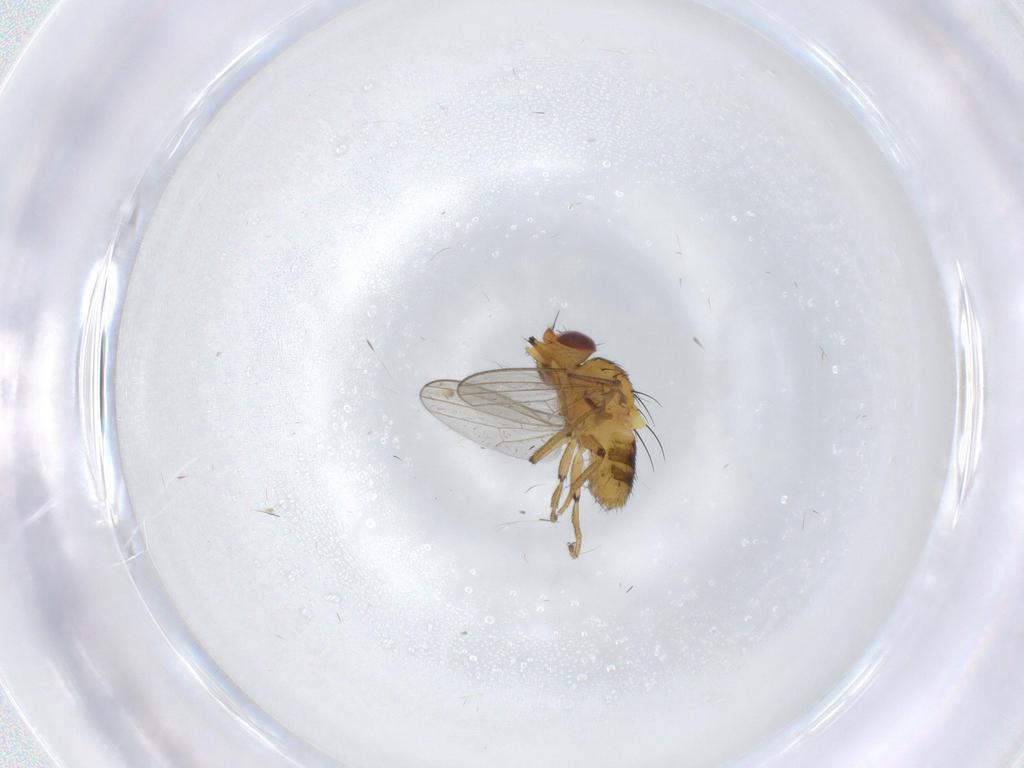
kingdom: Animalia
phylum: Arthropoda
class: Insecta
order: Diptera
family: Milichiidae
